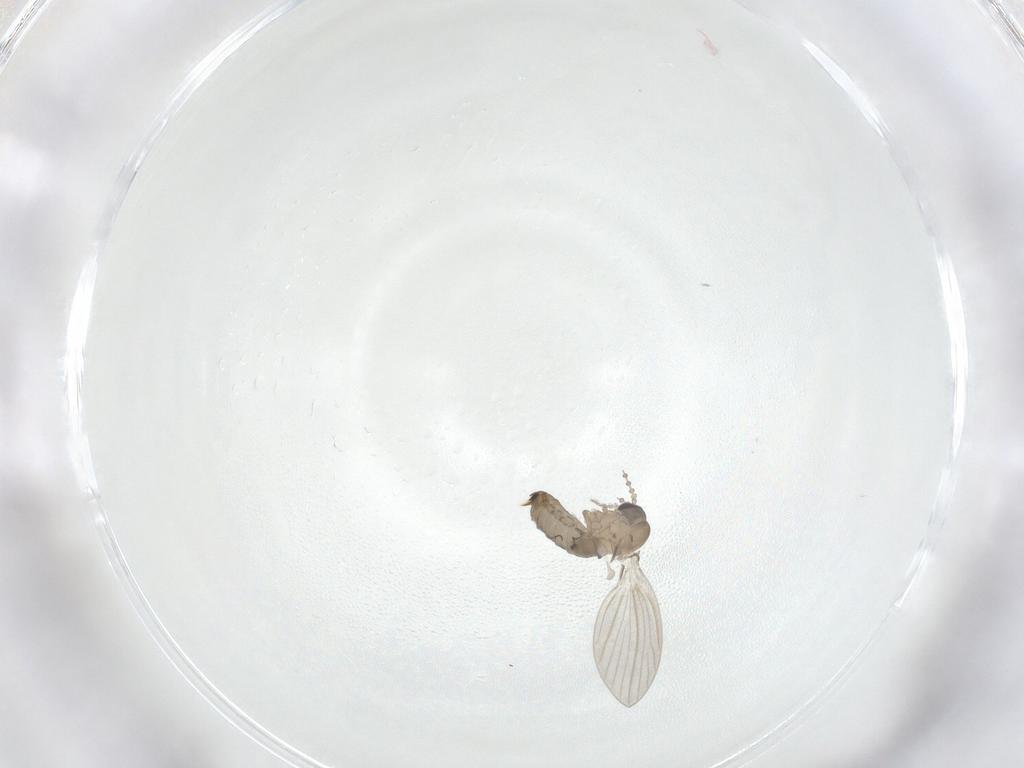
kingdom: Animalia
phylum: Arthropoda
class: Insecta
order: Diptera
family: Psychodidae
